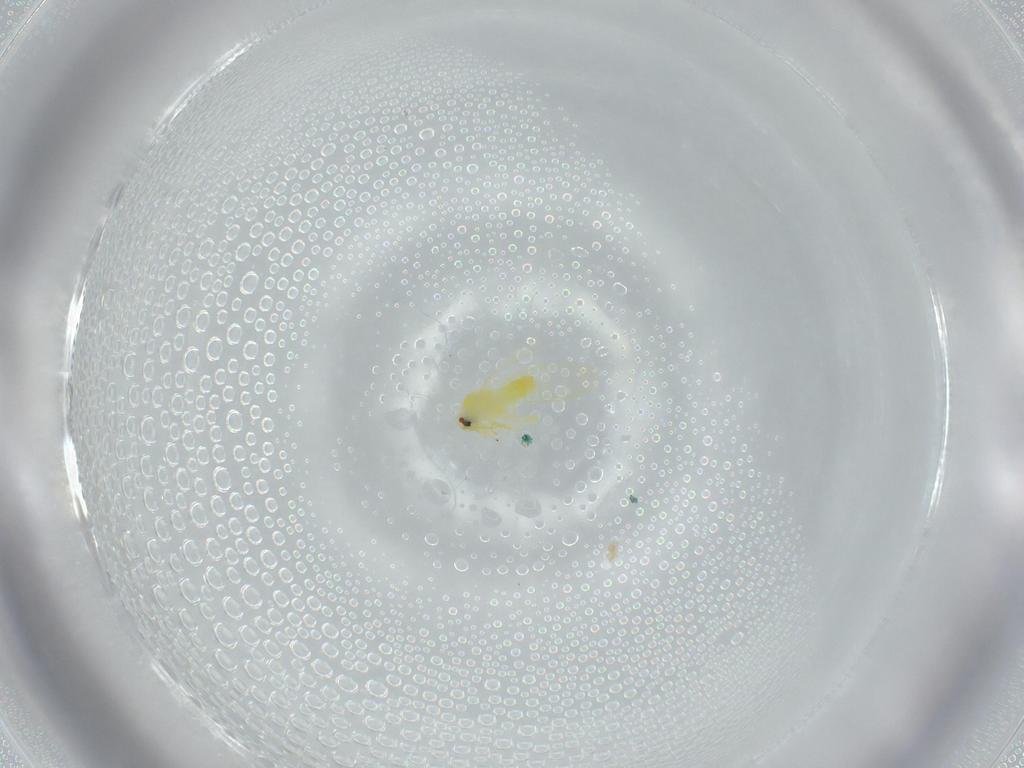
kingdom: Animalia
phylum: Arthropoda
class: Insecta
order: Hemiptera
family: Aleyrodidae
